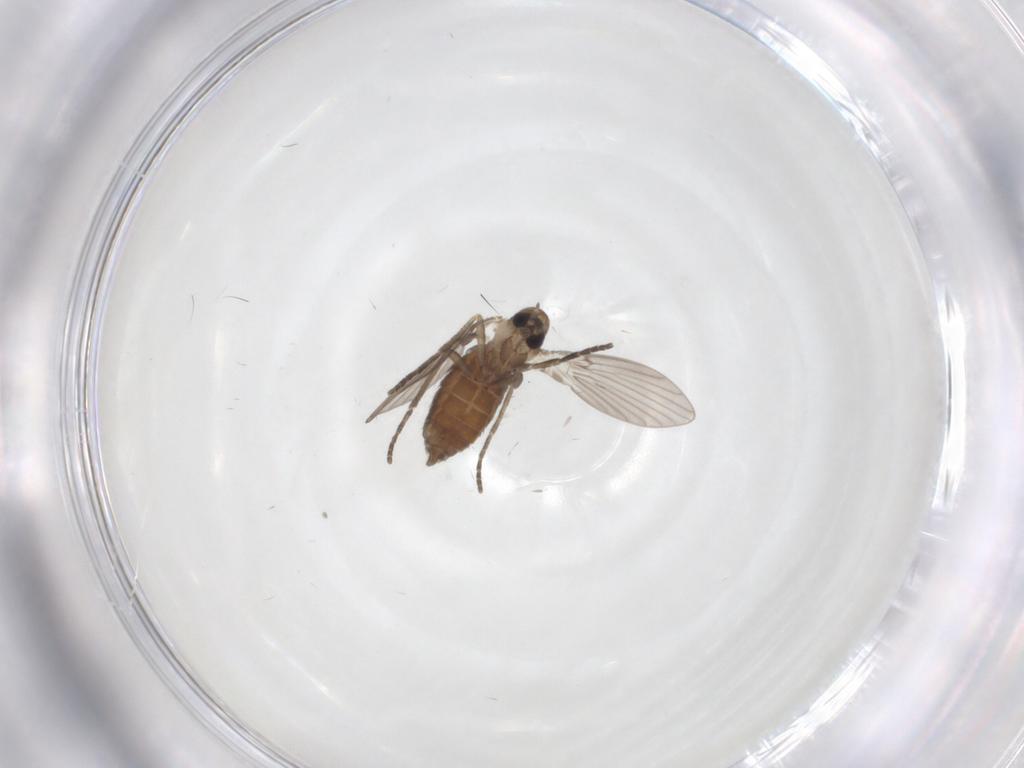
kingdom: Animalia
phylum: Arthropoda
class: Insecta
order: Diptera
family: Psychodidae
